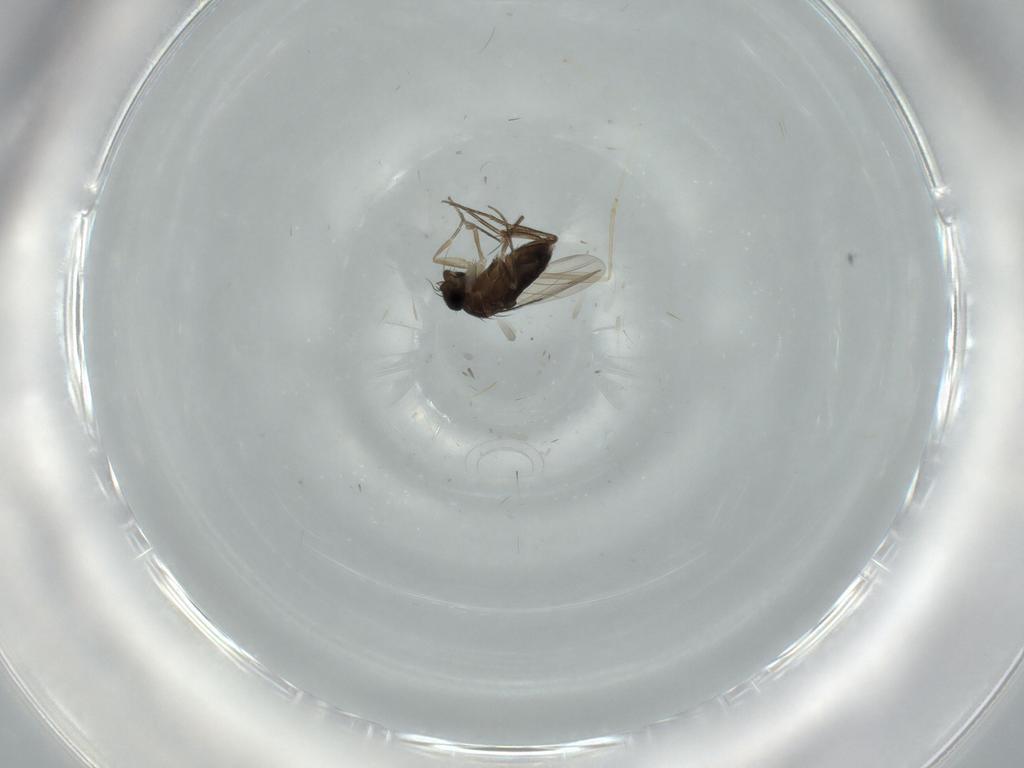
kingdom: Animalia
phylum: Arthropoda
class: Insecta
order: Diptera
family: Phoridae
